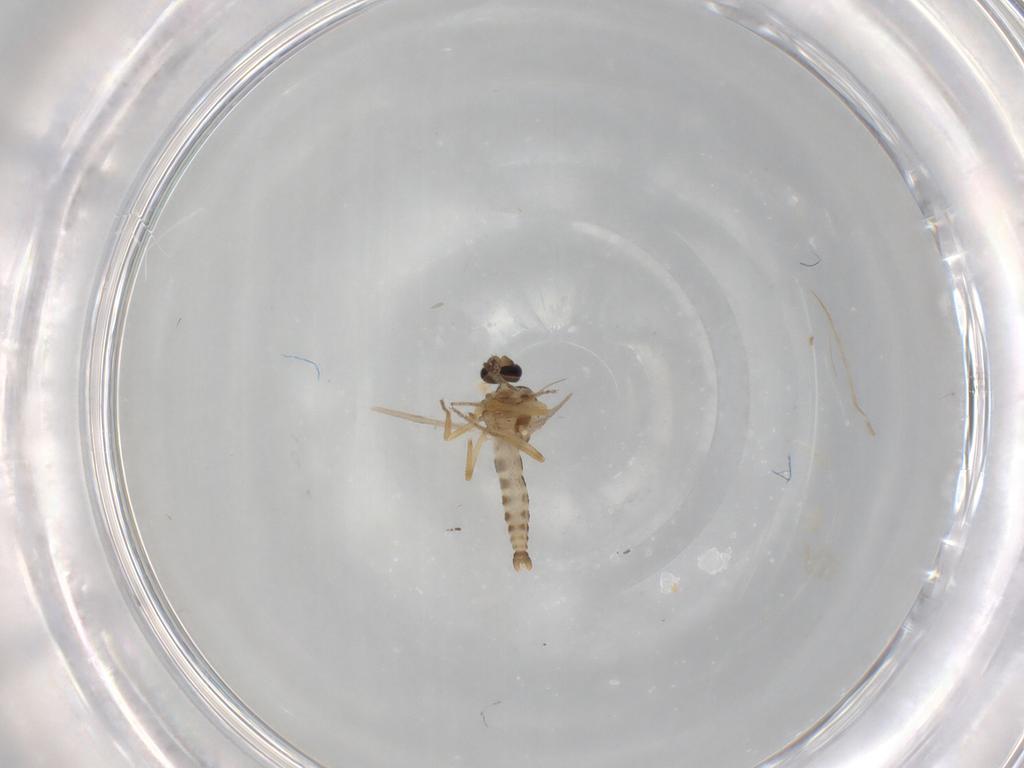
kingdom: Animalia
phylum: Arthropoda
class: Insecta
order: Diptera
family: Ceratopogonidae
